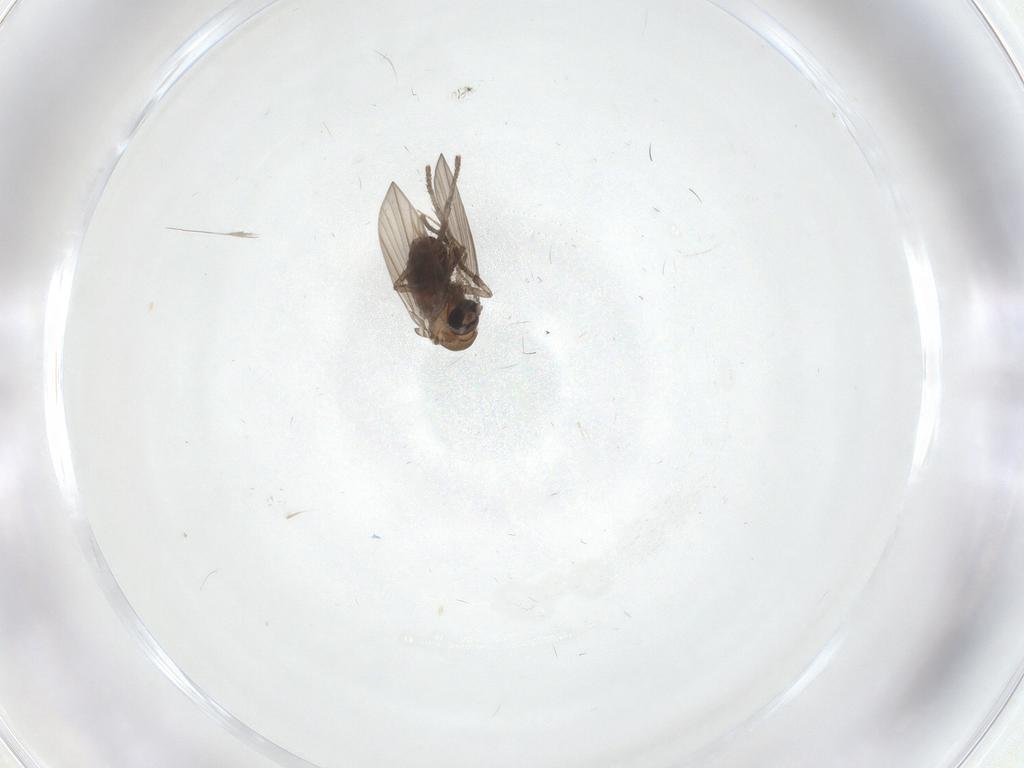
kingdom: Animalia
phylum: Arthropoda
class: Insecta
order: Diptera
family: Psychodidae
